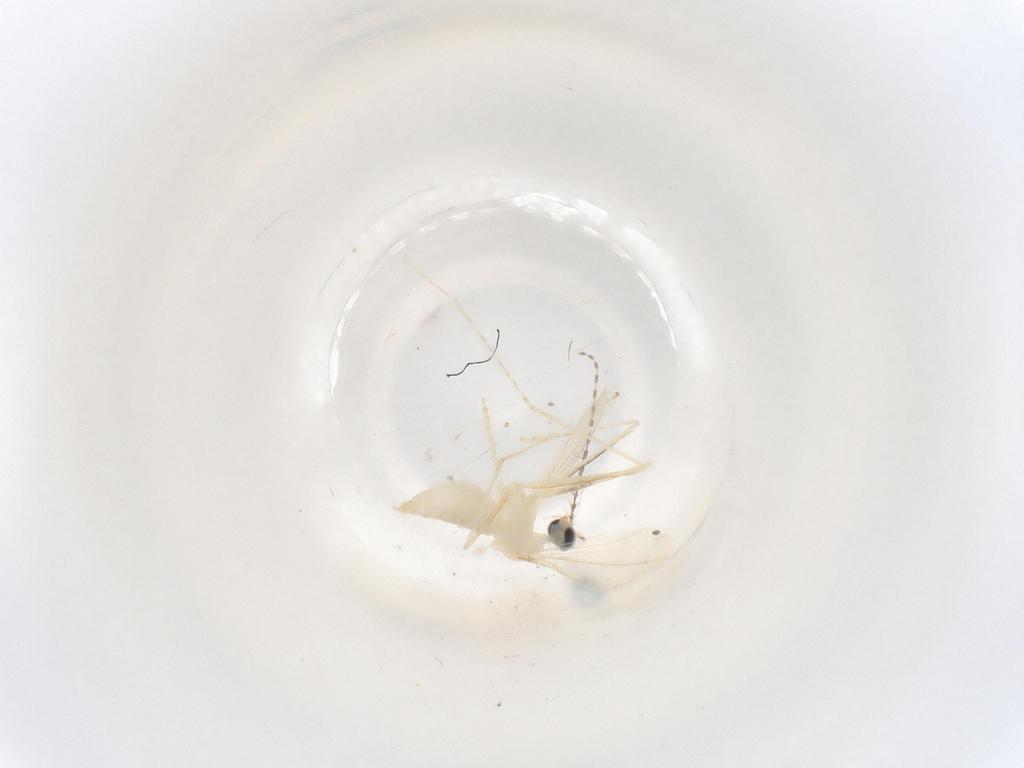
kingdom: Animalia
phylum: Arthropoda
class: Insecta
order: Diptera
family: Cecidomyiidae
